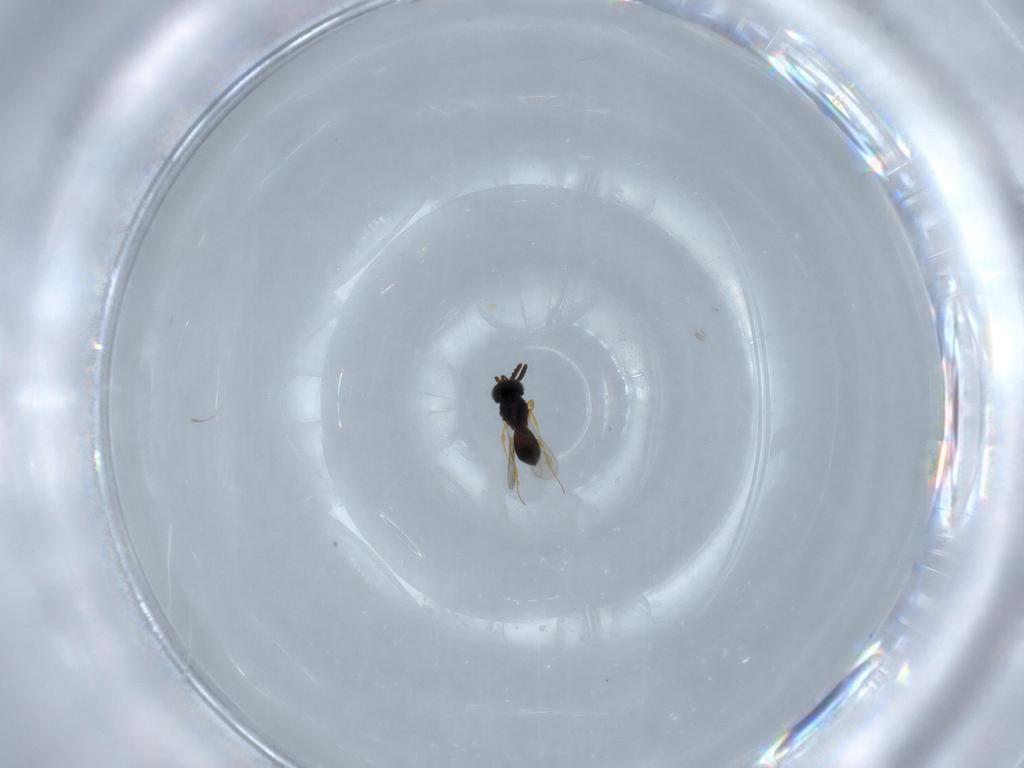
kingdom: Animalia
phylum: Arthropoda
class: Insecta
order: Hymenoptera
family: Scelionidae
